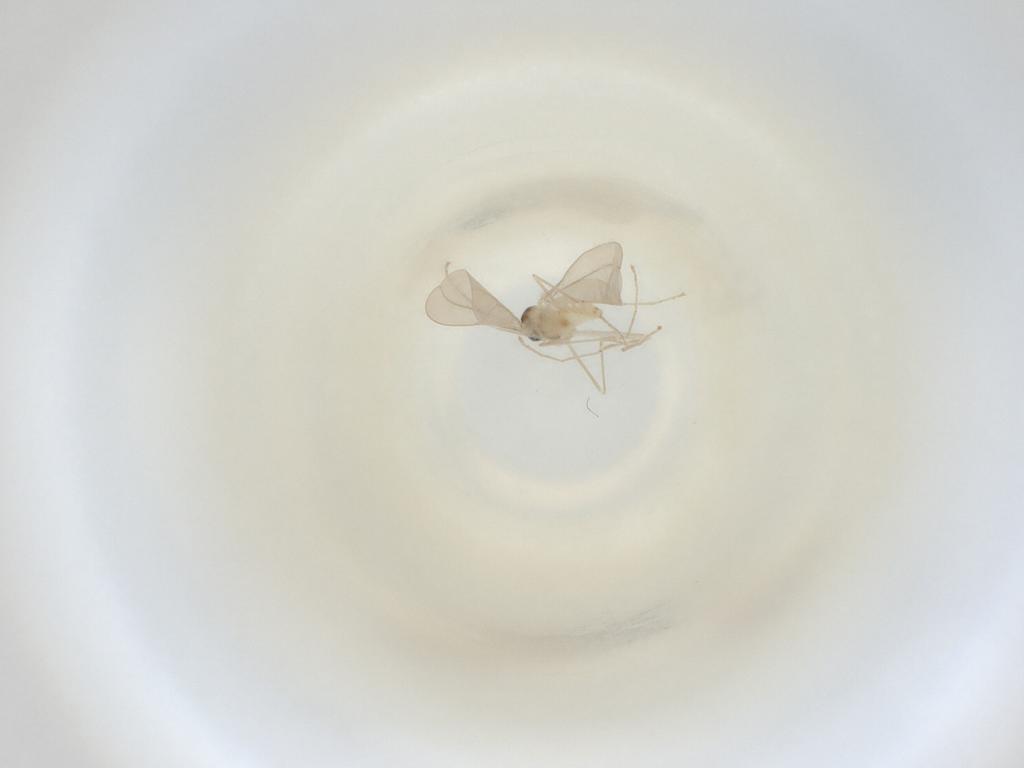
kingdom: Animalia
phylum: Arthropoda
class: Insecta
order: Diptera
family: Cecidomyiidae
